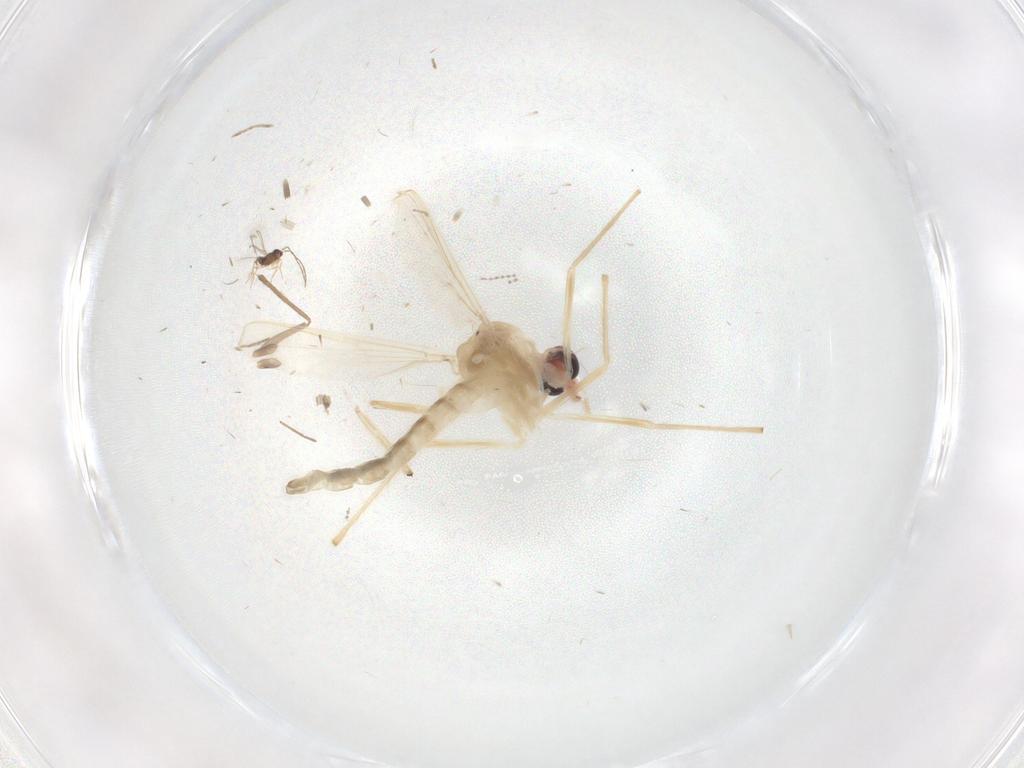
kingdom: Animalia
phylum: Arthropoda
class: Insecta
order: Diptera
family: Chironomidae
